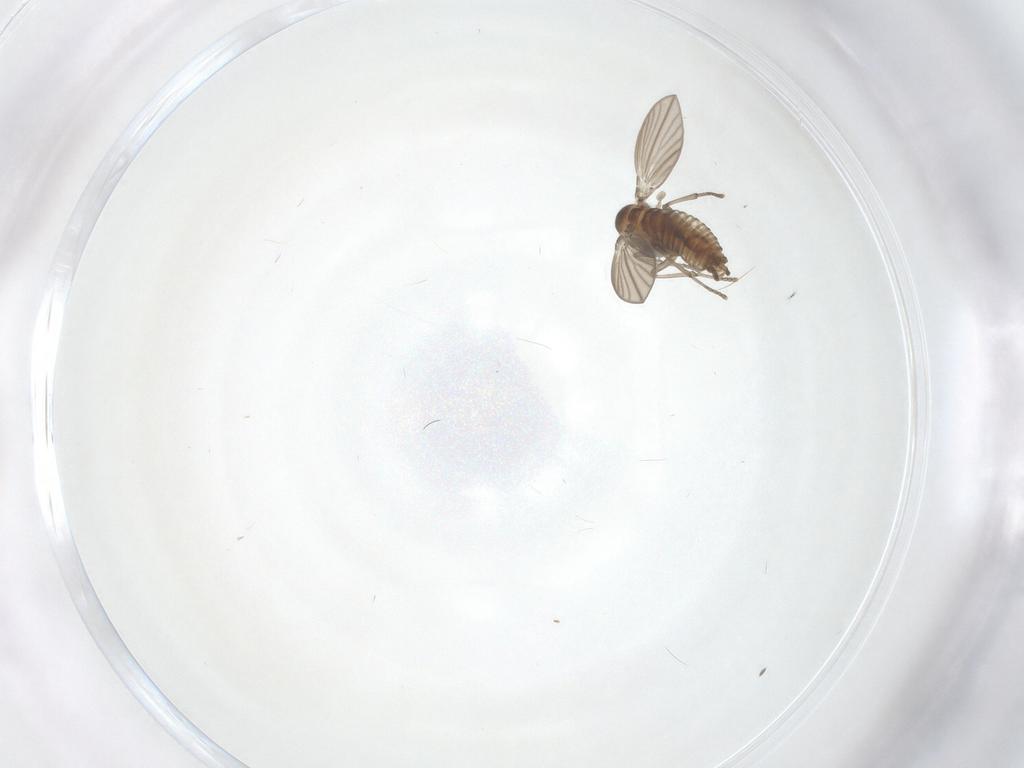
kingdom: Animalia
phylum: Arthropoda
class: Insecta
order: Diptera
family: Psychodidae
